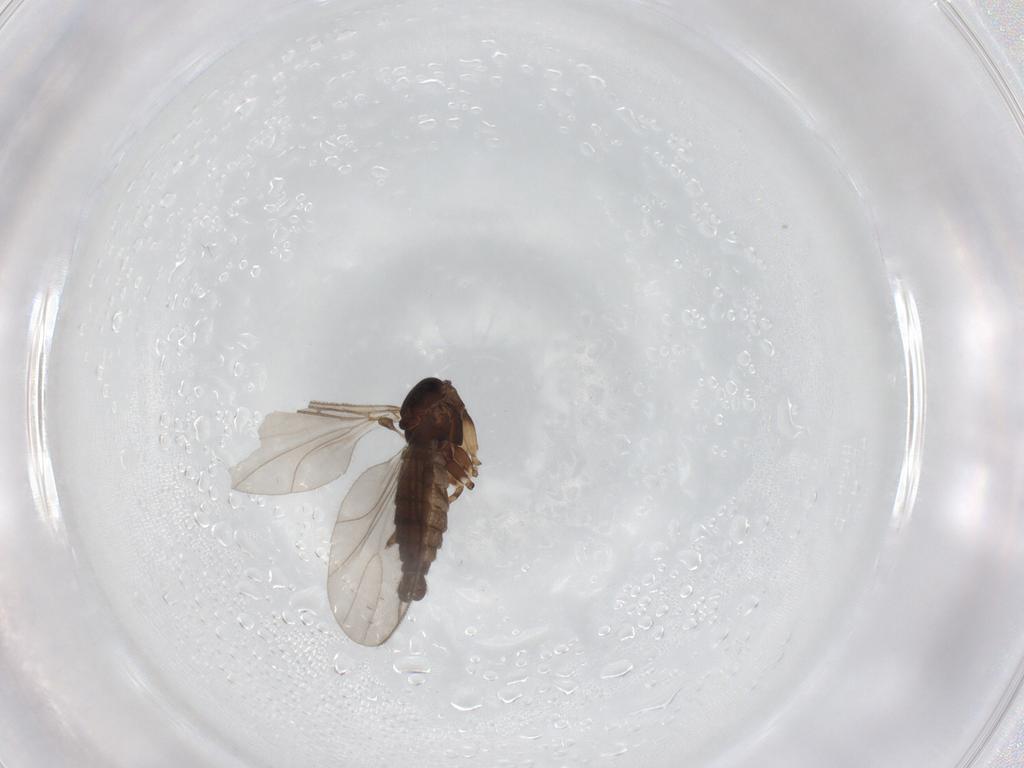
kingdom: Animalia
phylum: Arthropoda
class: Insecta
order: Diptera
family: Sciaridae
